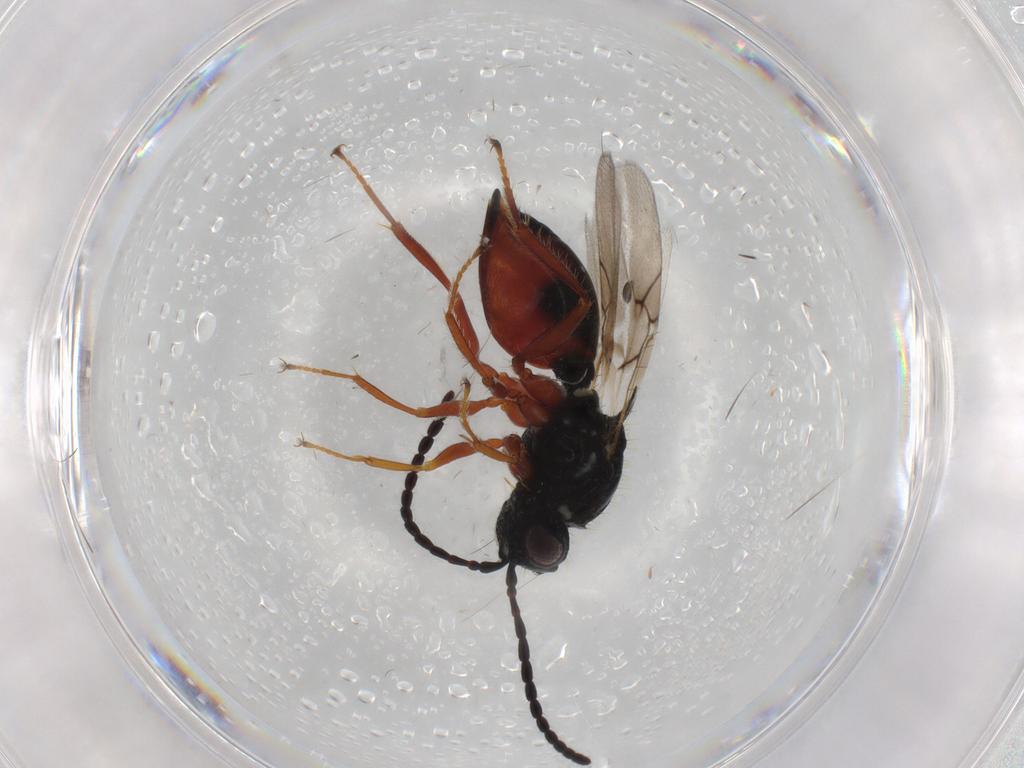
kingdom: Animalia
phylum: Arthropoda
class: Insecta
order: Hymenoptera
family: Figitidae
